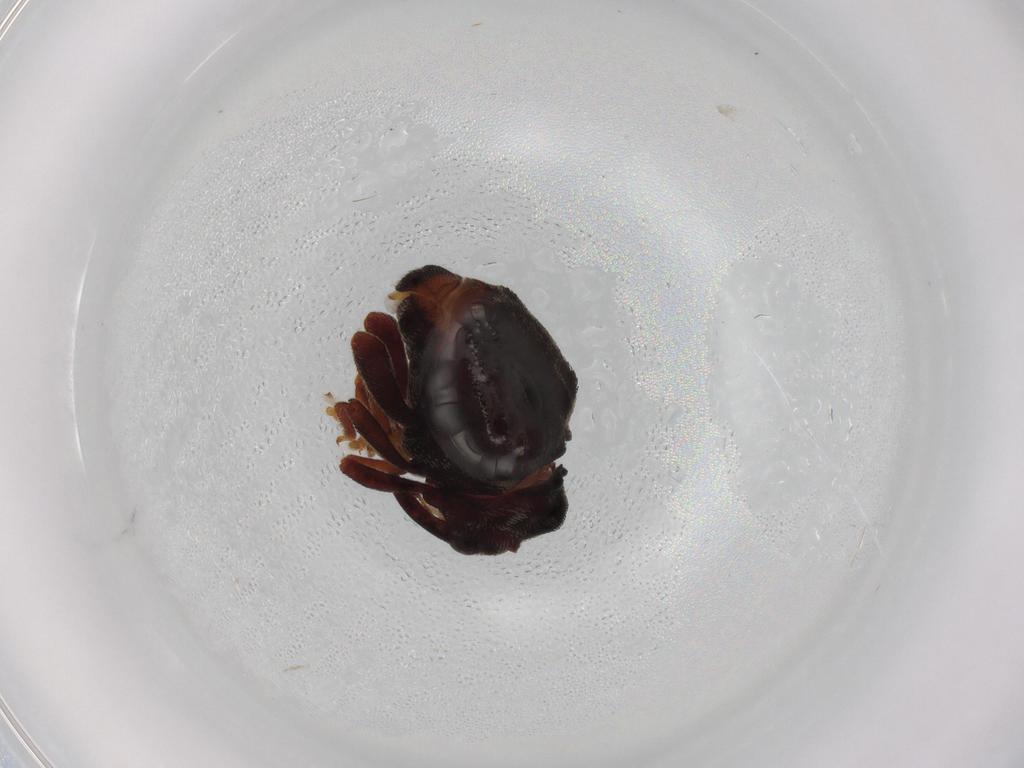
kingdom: Animalia
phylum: Arthropoda
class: Insecta
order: Coleoptera
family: Curculionidae
